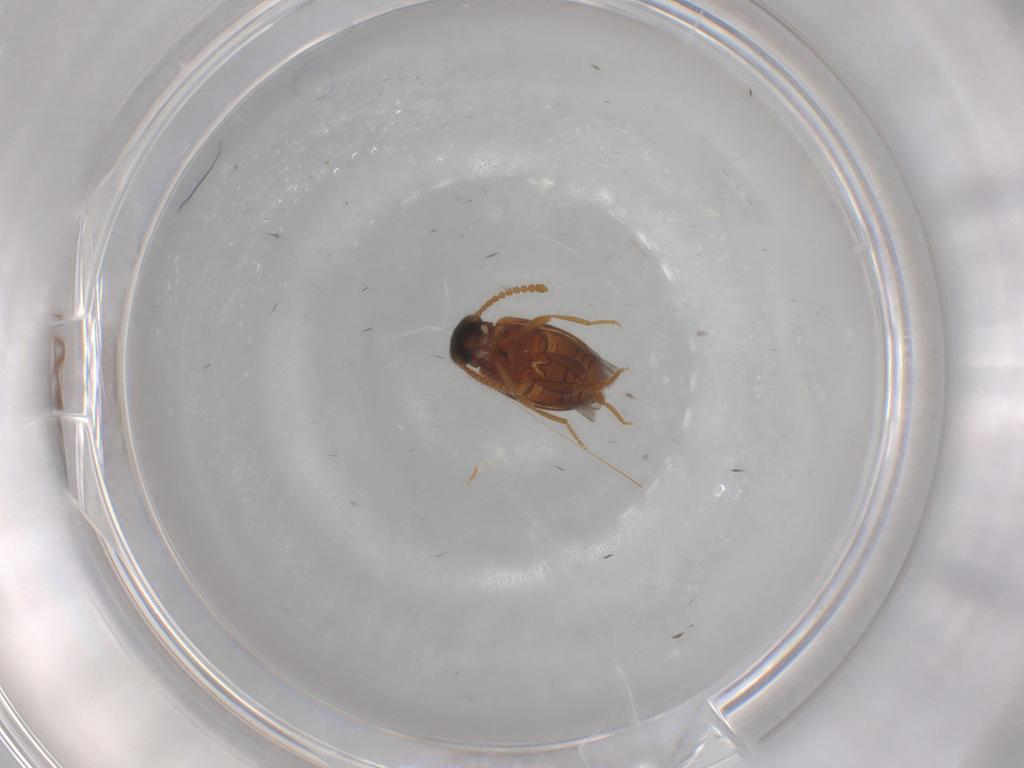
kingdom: Animalia
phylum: Arthropoda
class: Insecta
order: Coleoptera
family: Aderidae
